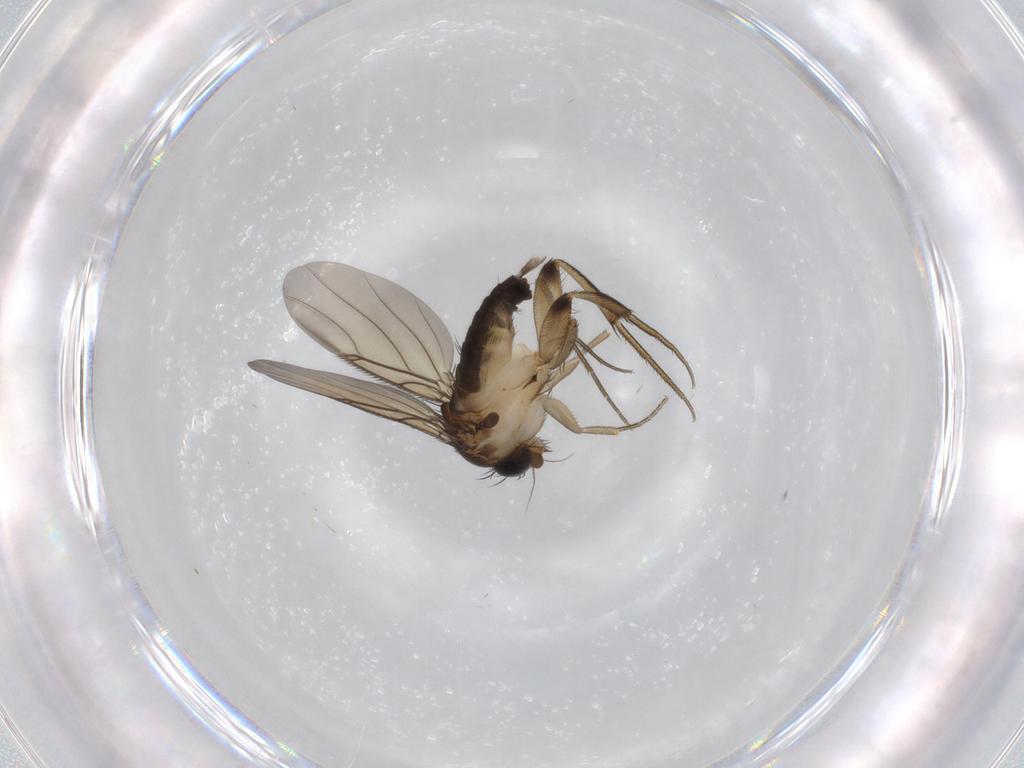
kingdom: Animalia
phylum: Arthropoda
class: Insecta
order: Diptera
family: Phoridae
